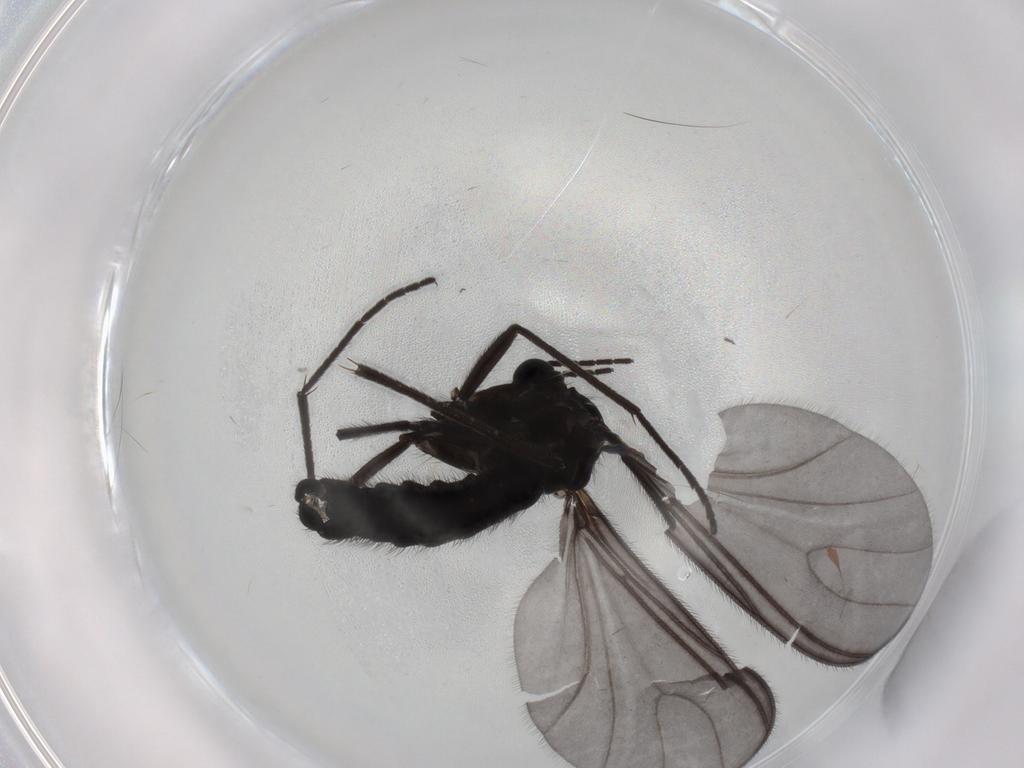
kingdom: Animalia
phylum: Arthropoda
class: Insecta
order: Diptera
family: Sciaridae
